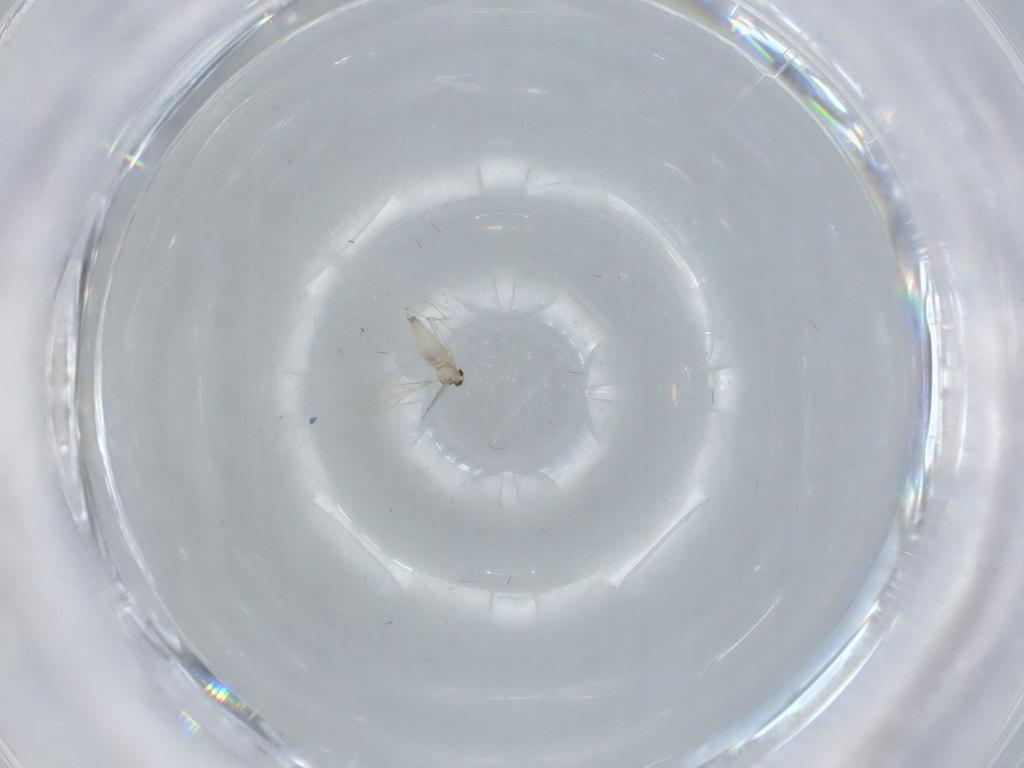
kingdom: Animalia
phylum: Arthropoda
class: Insecta
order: Diptera
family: Cecidomyiidae
